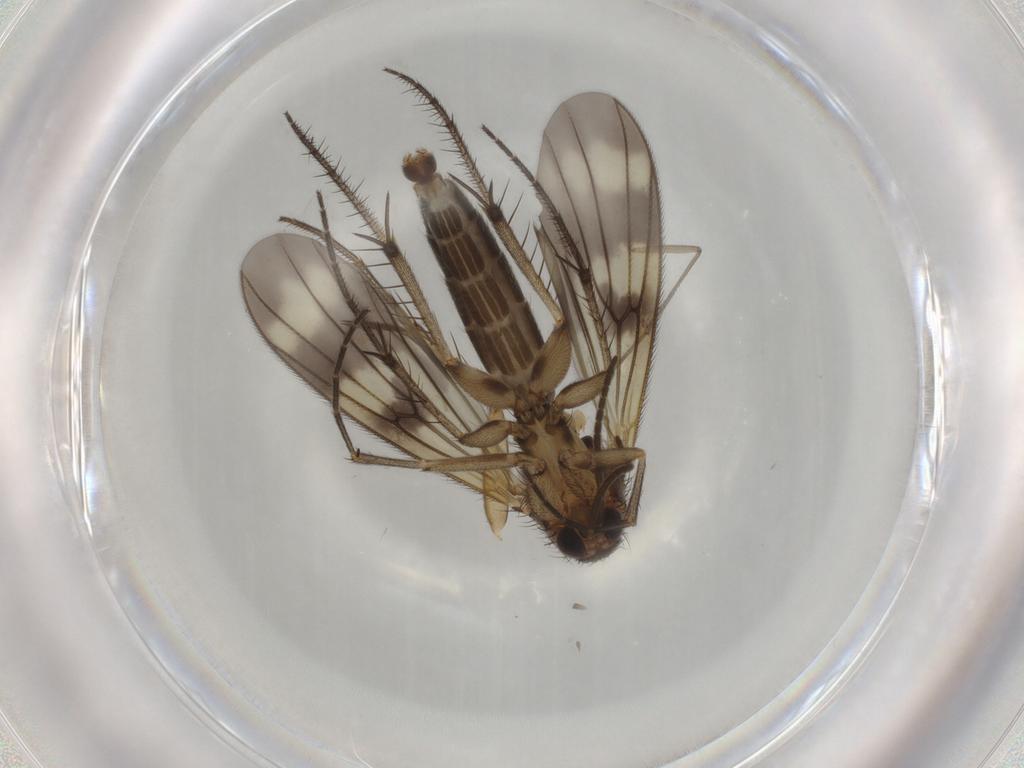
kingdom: Animalia
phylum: Arthropoda
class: Insecta
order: Diptera
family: Mycetophilidae
